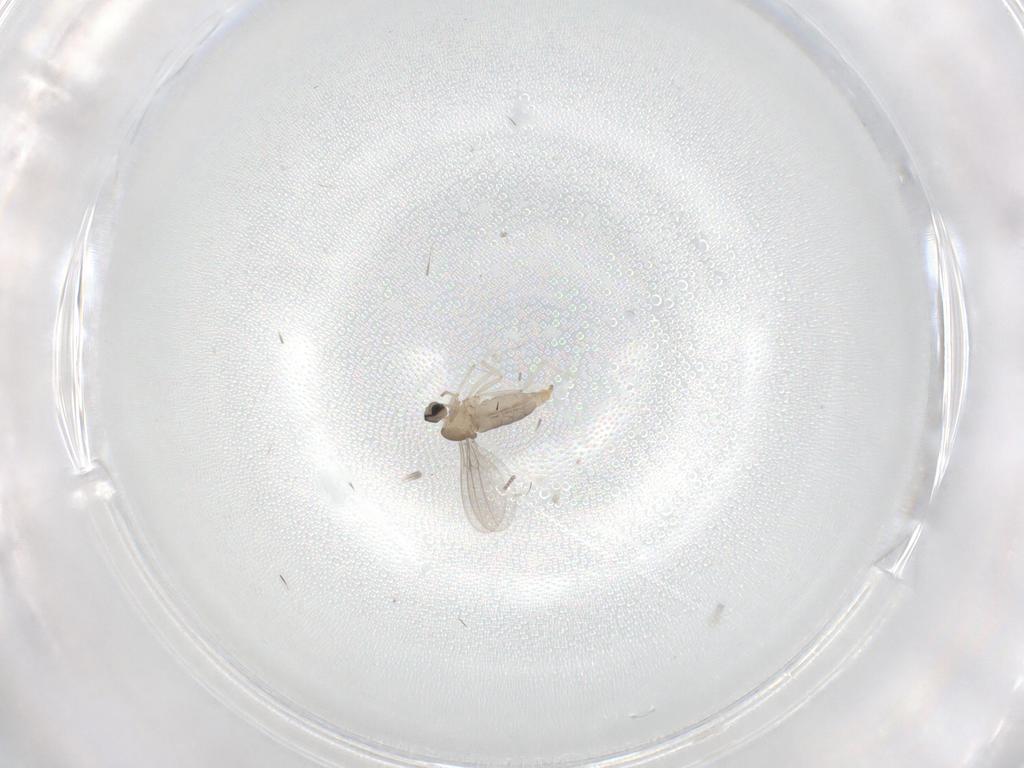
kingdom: Animalia
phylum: Arthropoda
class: Insecta
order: Diptera
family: Cecidomyiidae
